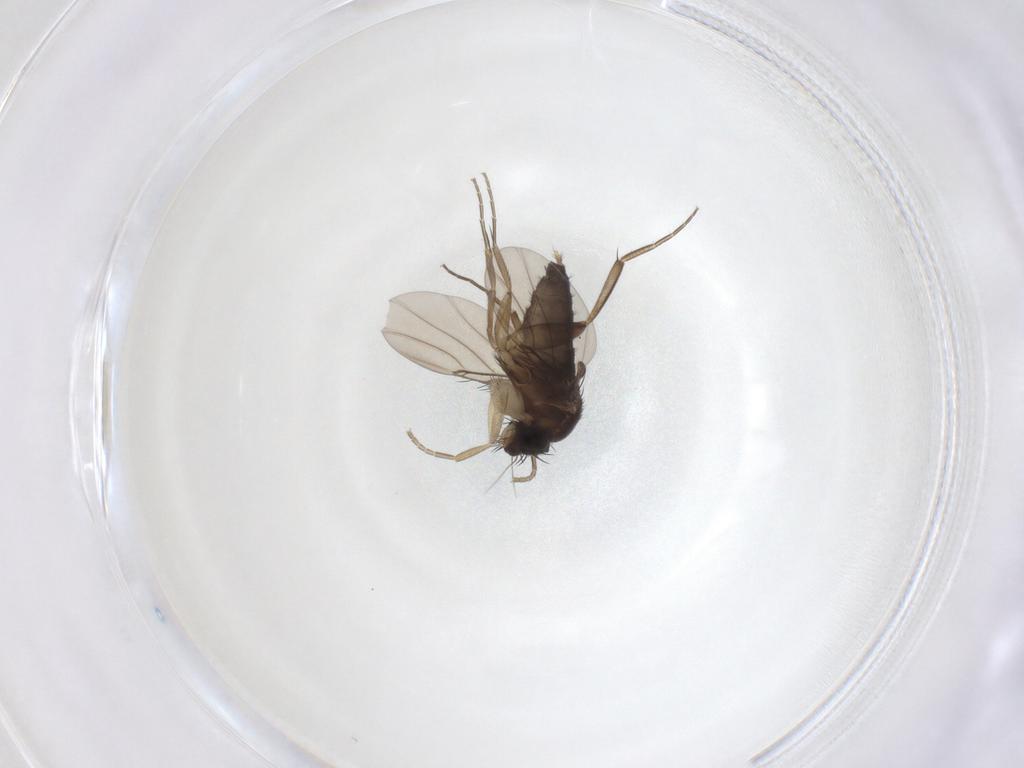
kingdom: Animalia
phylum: Arthropoda
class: Insecta
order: Diptera
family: Phoridae
